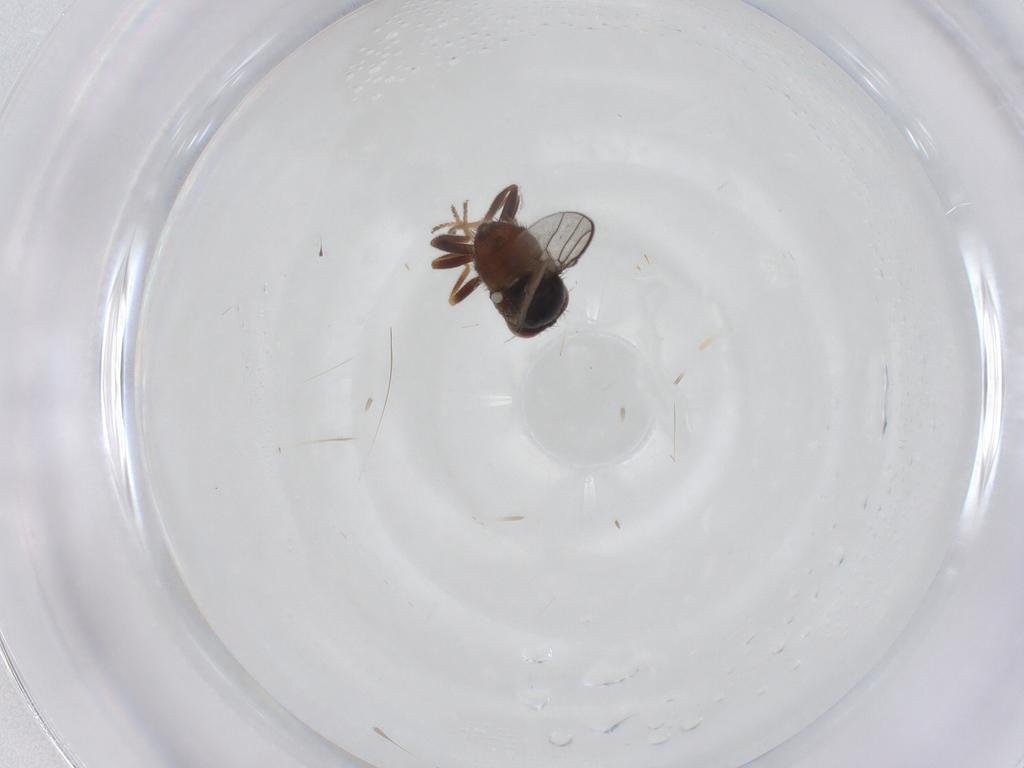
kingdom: Animalia
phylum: Arthropoda
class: Insecta
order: Diptera
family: Chloropidae
